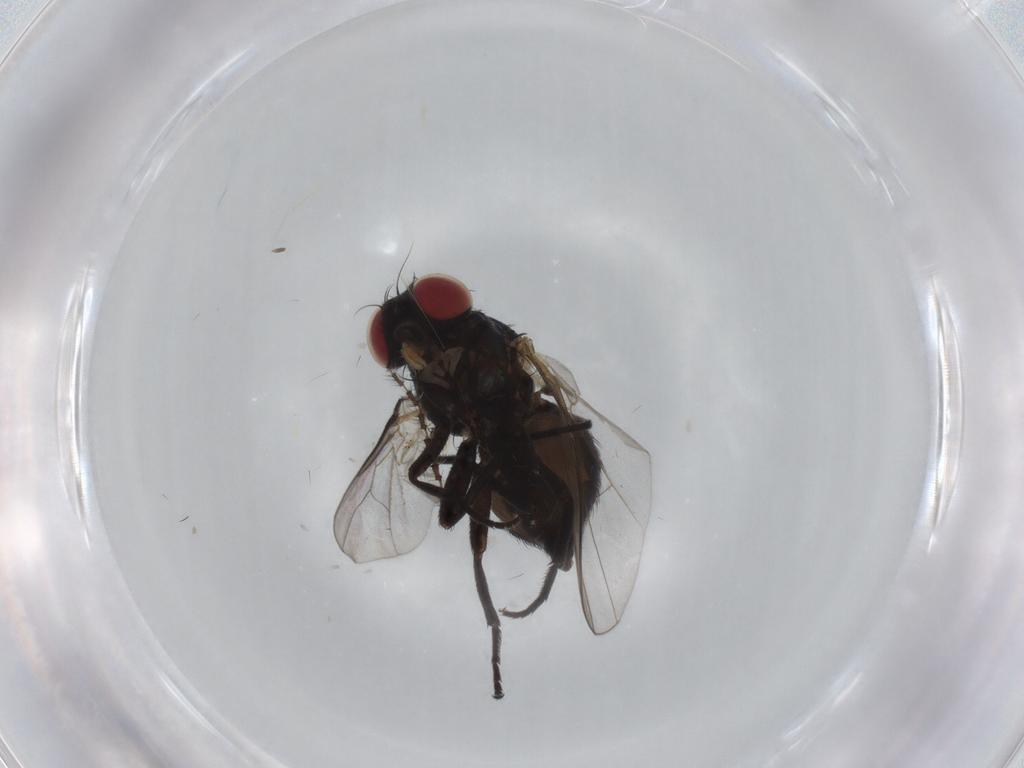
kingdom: Animalia
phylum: Arthropoda
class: Insecta
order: Diptera
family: Agromyzidae
